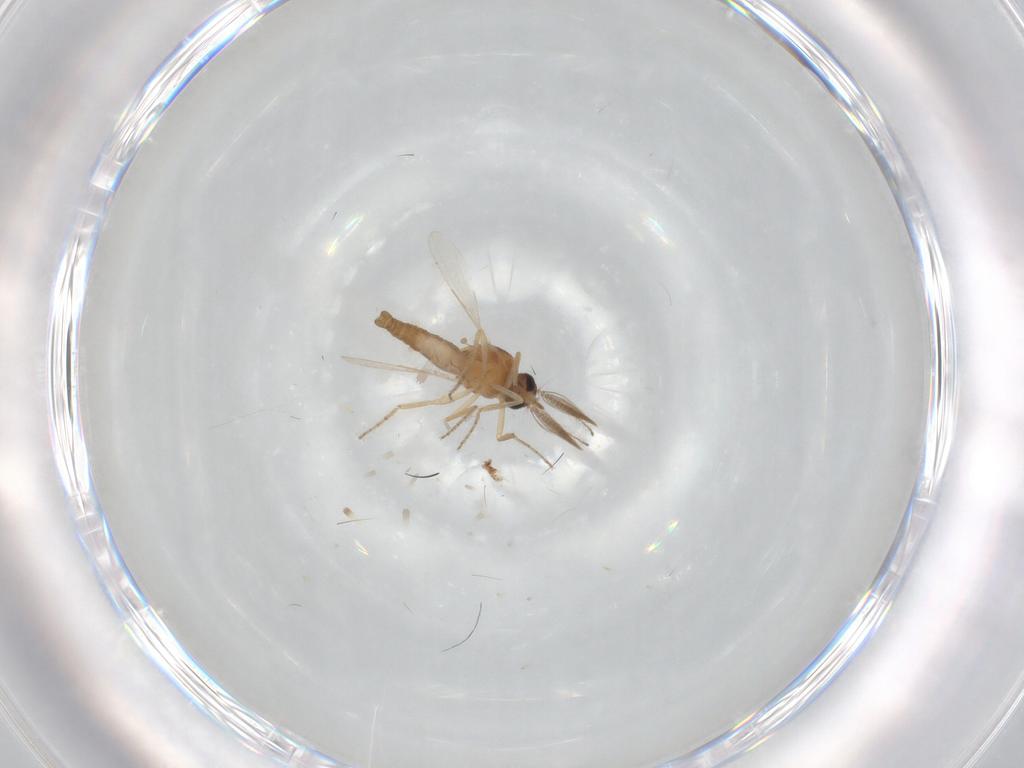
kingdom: Animalia
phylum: Arthropoda
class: Insecta
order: Diptera
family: Ceratopogonidae
